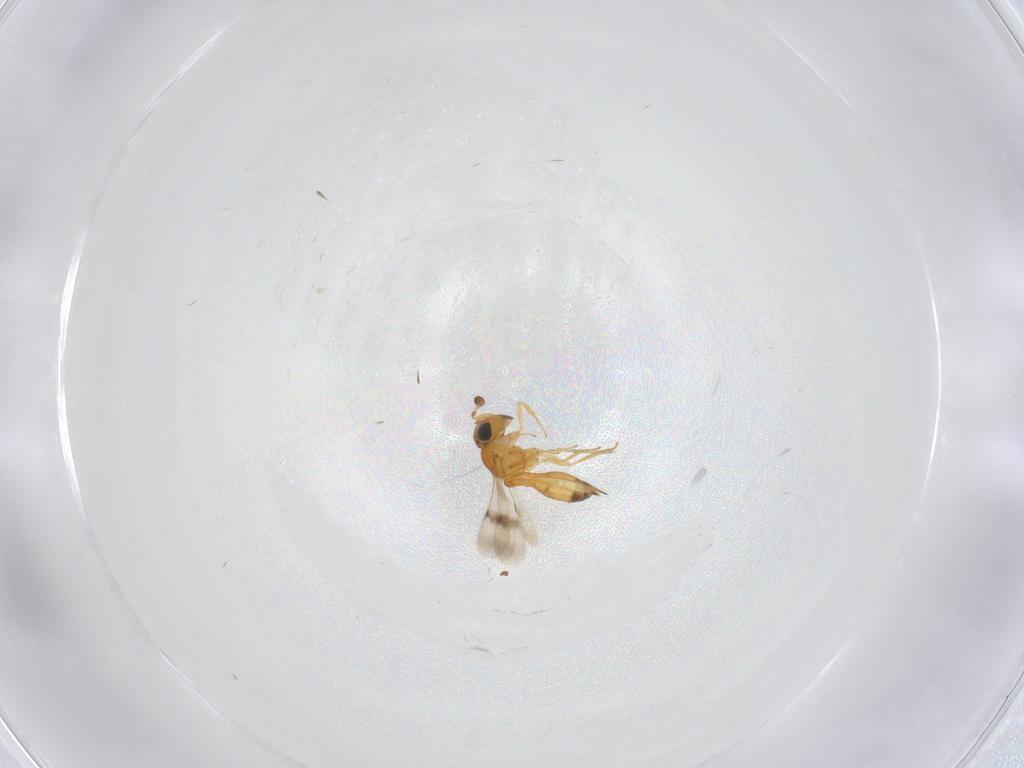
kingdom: Animalia
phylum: Arthropoda
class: Insecta
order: Hymenoptera
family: Scelionidae
